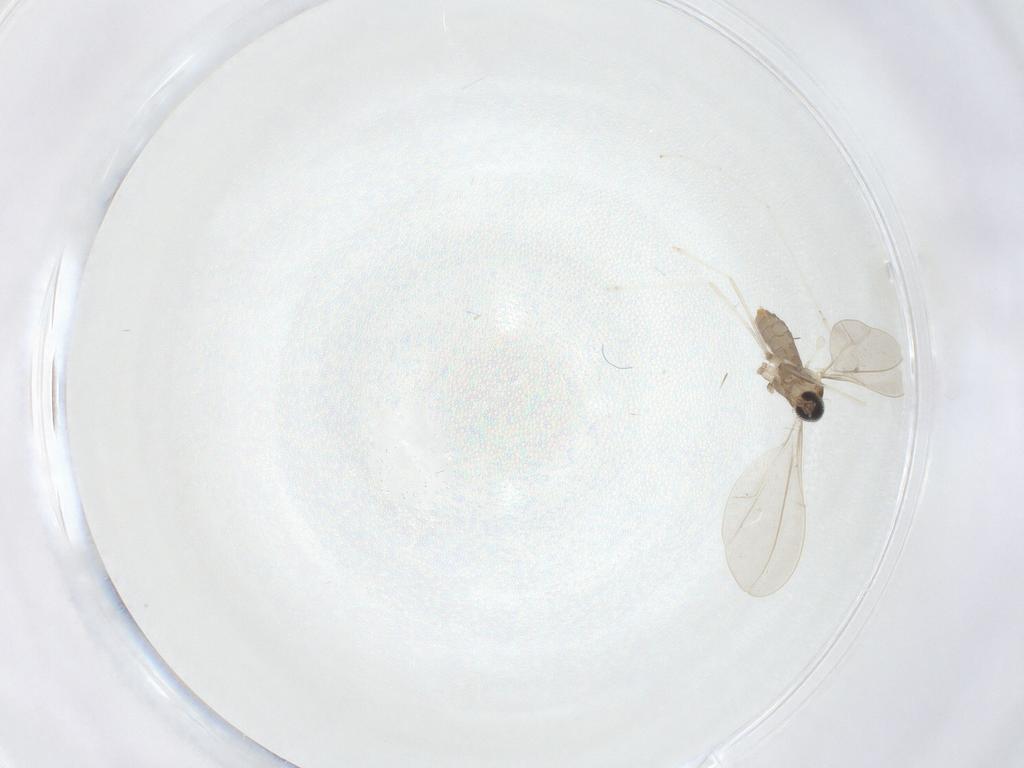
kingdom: Animalia
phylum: Arthropoda
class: Insecta
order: Diptera
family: Cecidomyiidae
